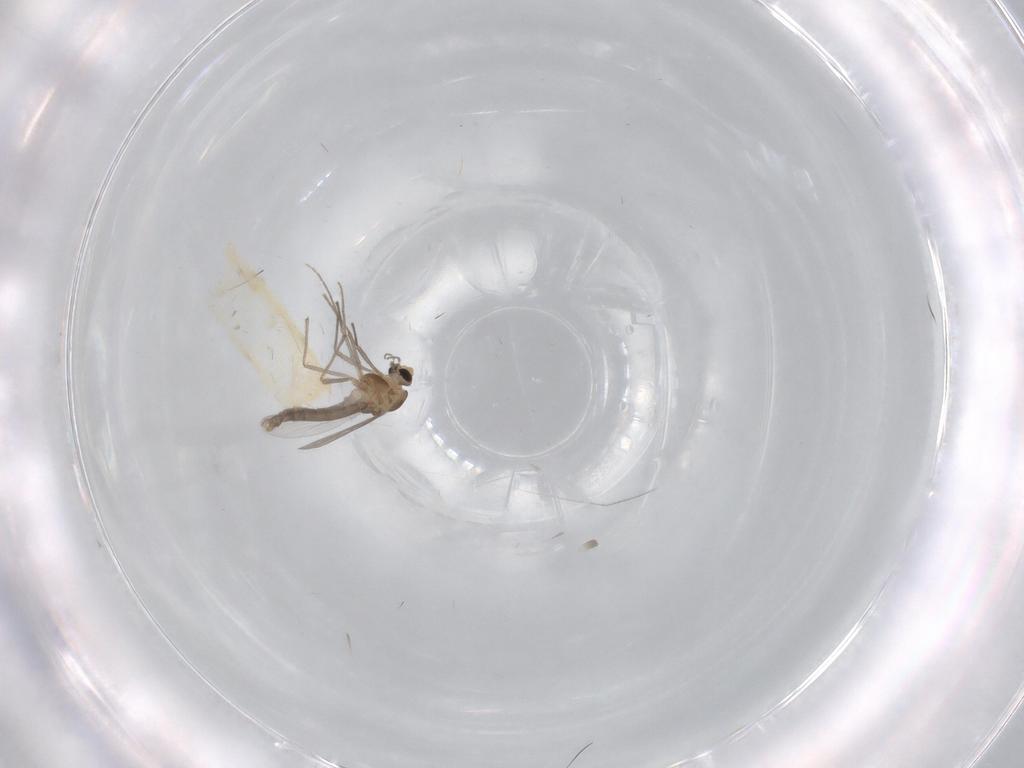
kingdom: Animalia
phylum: Arthropoda
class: Insecta
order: Diptera
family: Chironomidae
